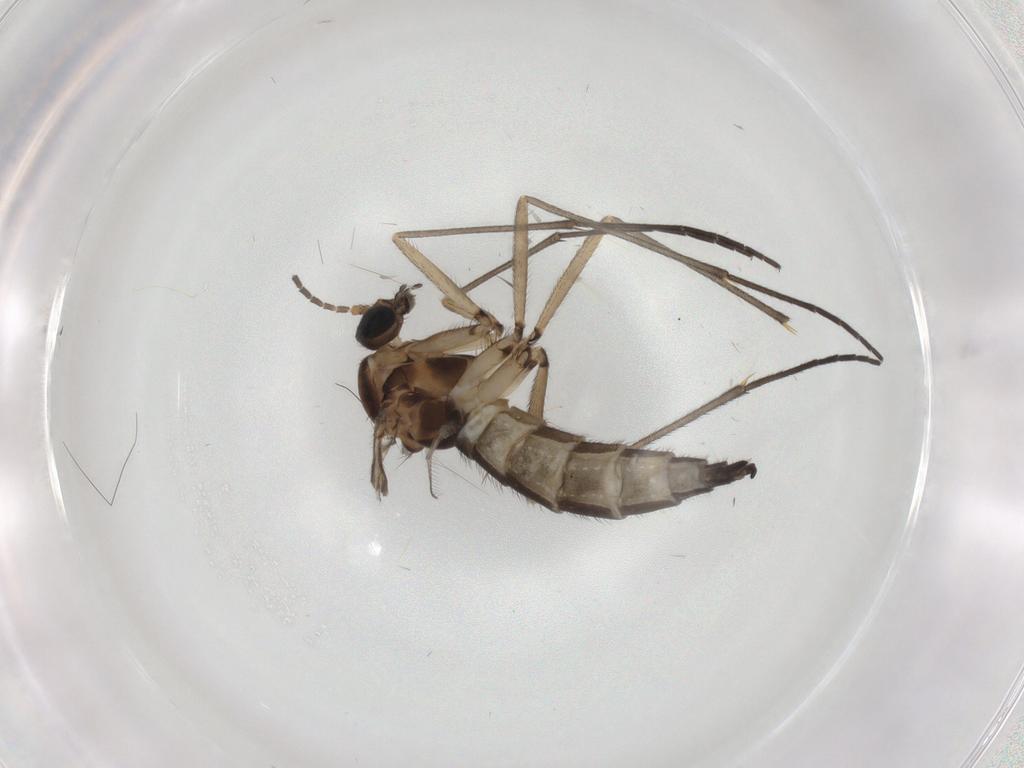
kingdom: Animalia
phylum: Arthropoda
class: Insecta
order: Diptera
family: Sciaridae
